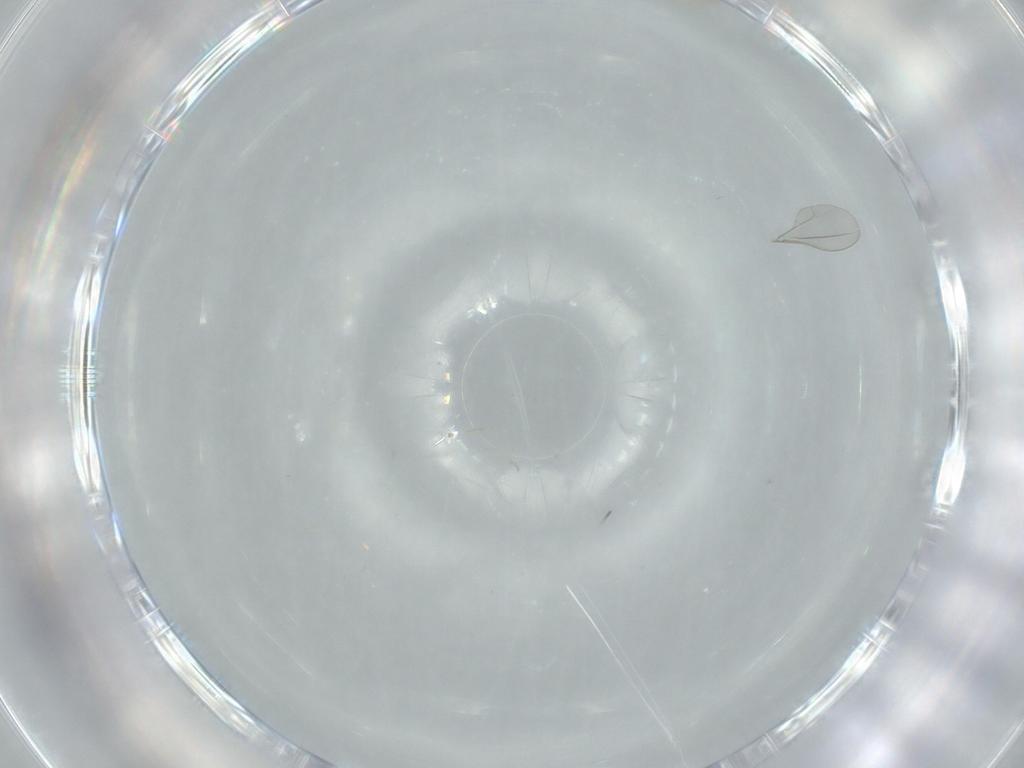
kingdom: Animalia
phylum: Arthropoda
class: Insecta
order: Diptera
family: Cecidomyiidae
